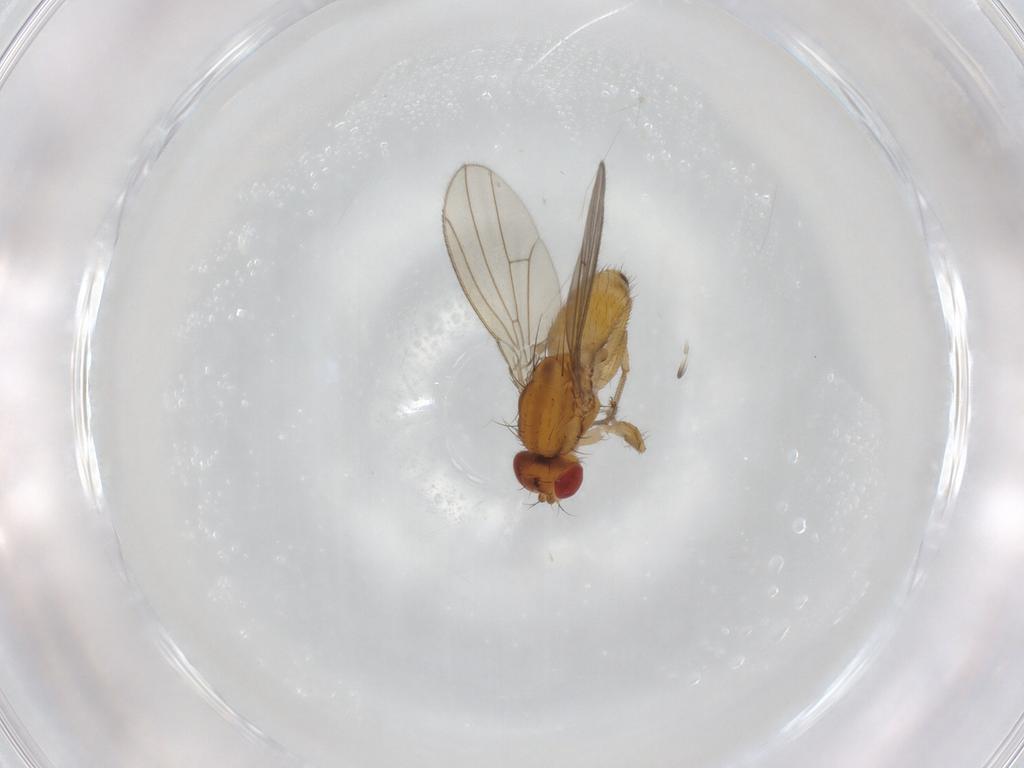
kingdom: Animalia
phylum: Arthropoda
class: Insecta
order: Diptera
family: Drosophilidae
